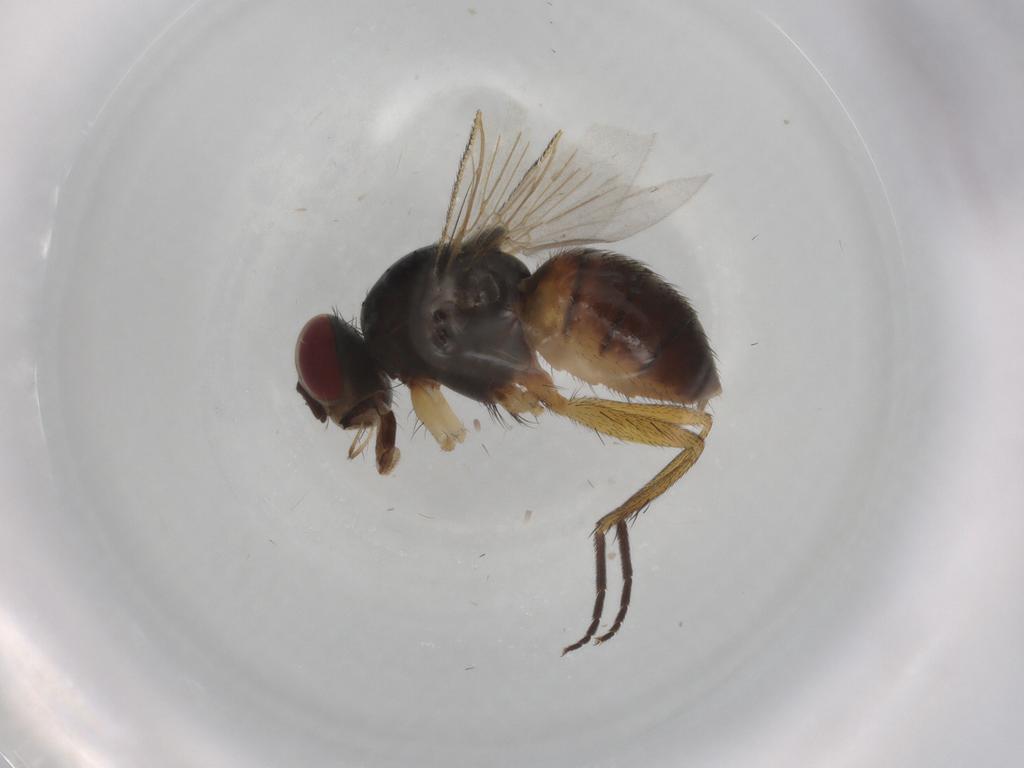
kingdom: Animalia
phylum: Arthropoda
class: Insecta
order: Diptera
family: Muscidae
